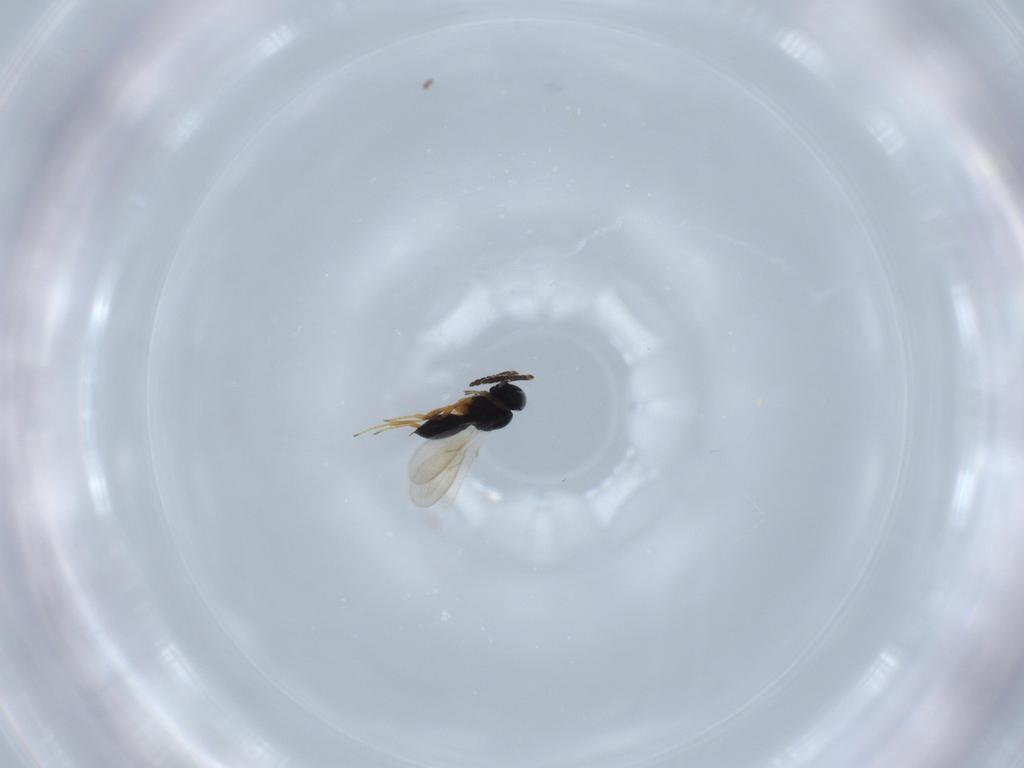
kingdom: Animalia
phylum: Arthropoda
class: Insecta
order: Hymenoptera
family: Scelionidae
